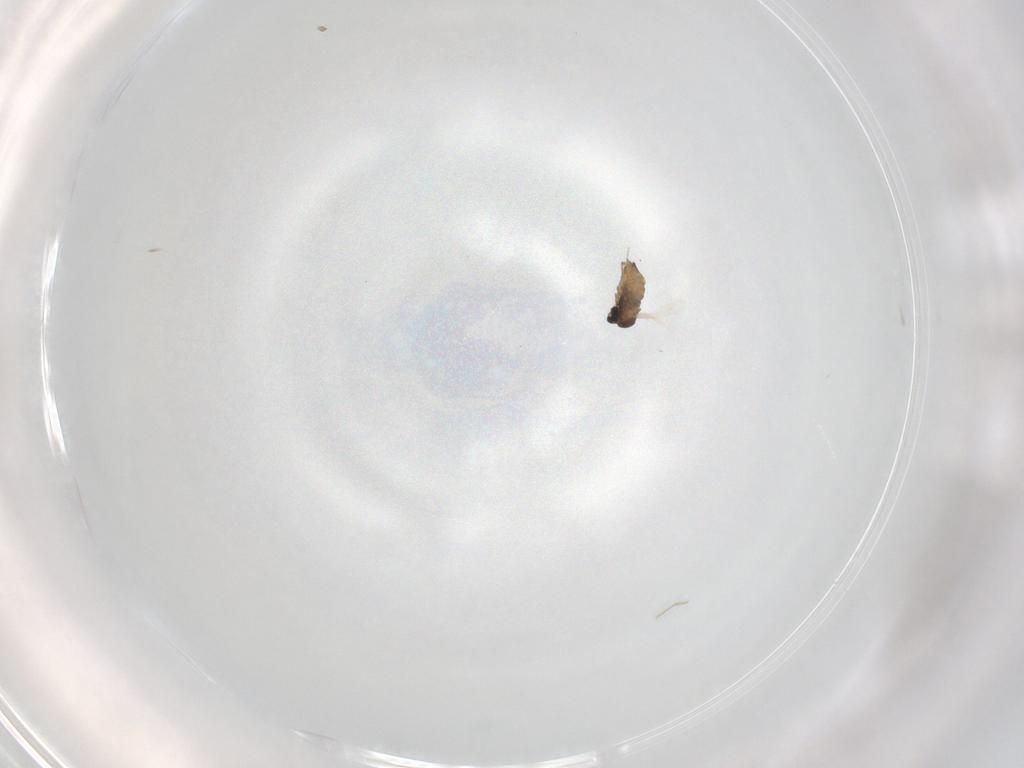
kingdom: Animalia
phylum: Arthropoda
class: Insecta
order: Diptera
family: Cecidomyiidae
